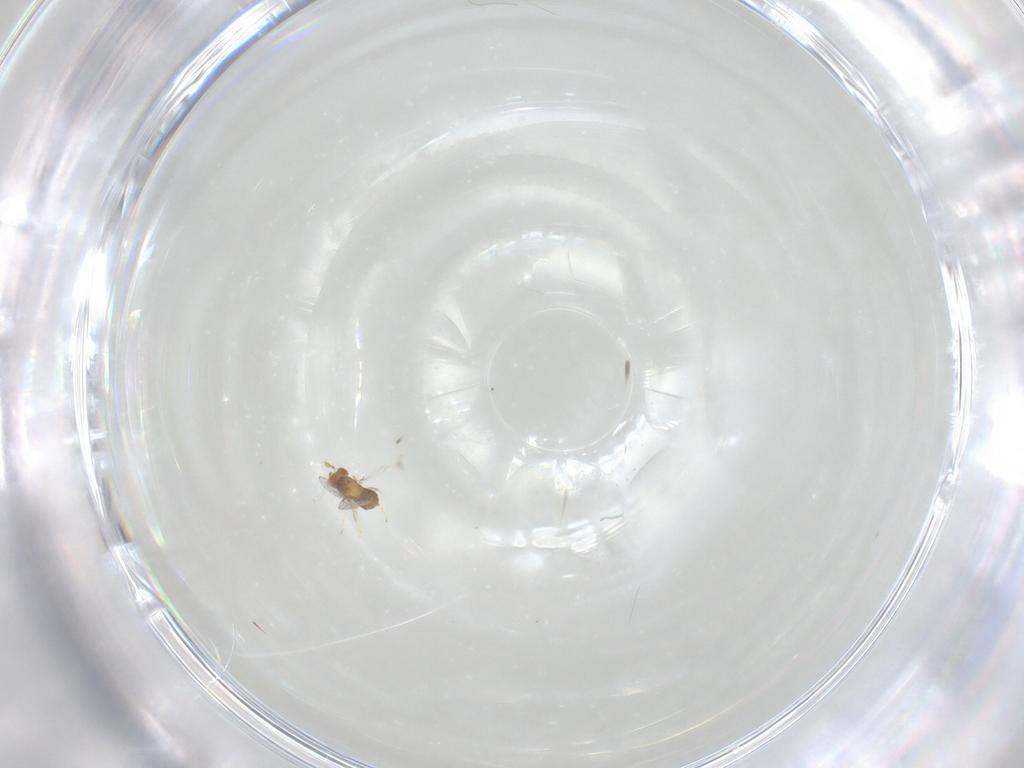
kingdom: Animalia
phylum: Arthropoda
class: Insecta
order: Hymenoptera
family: Trichogrammatidae
